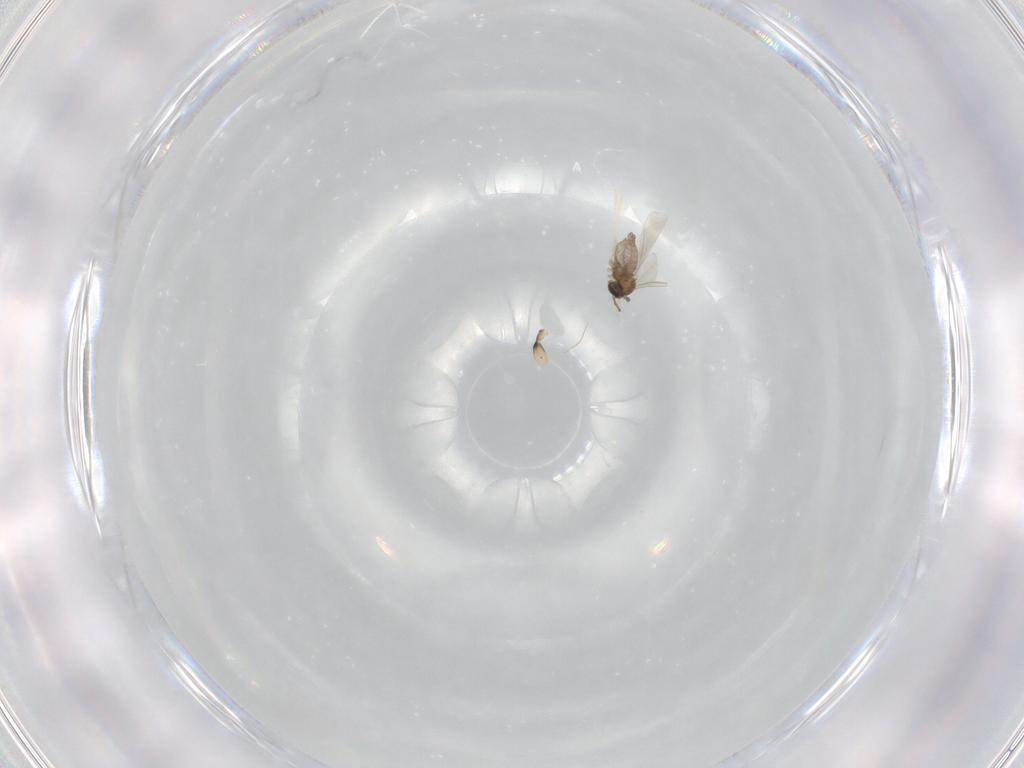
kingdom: Animalia
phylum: Arthropoda
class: Insecta
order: Diptera
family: Cecidomyiidae
